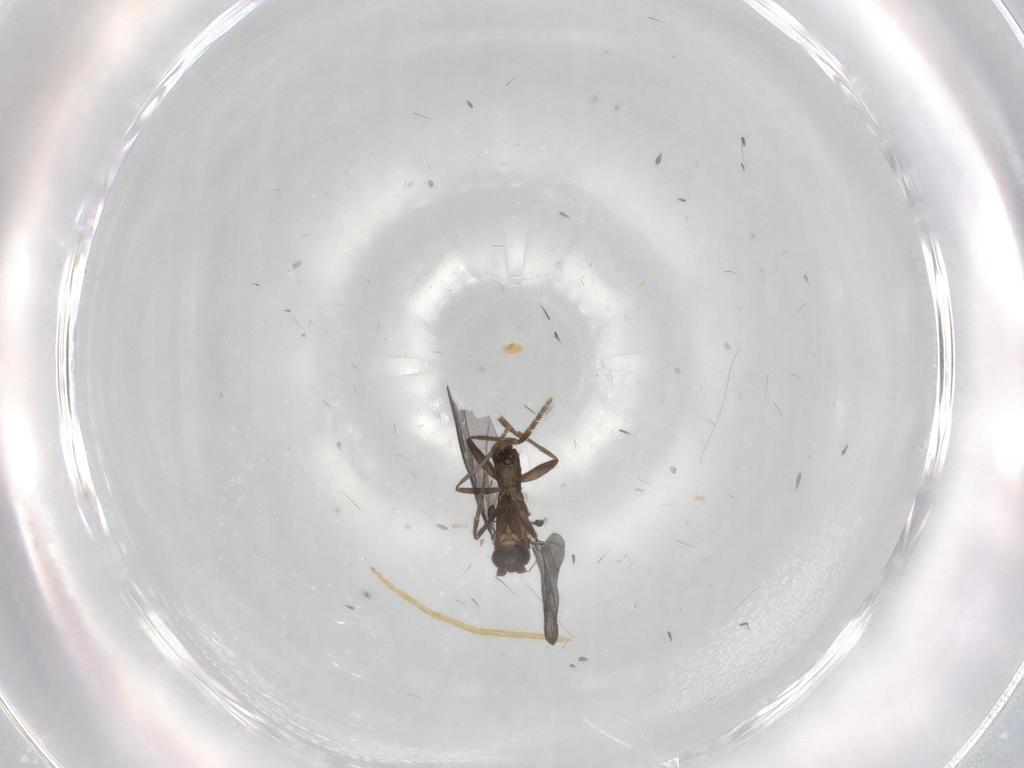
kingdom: Animalia
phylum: Arthropoda
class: Insecta
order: Diptera
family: Phoridae
